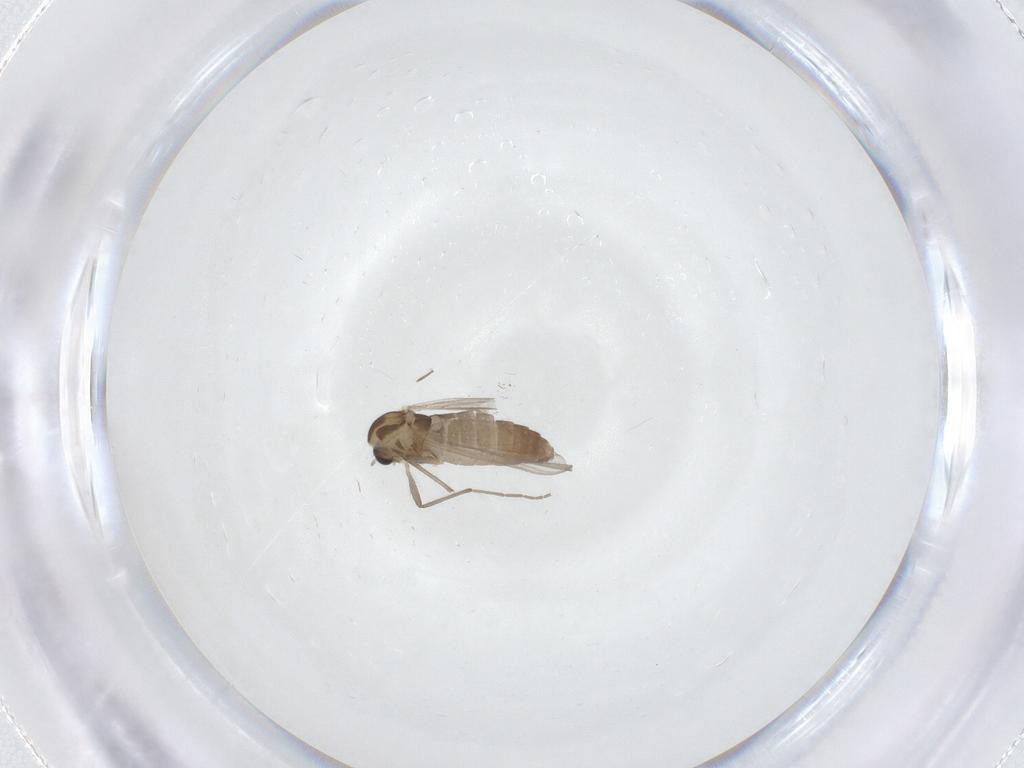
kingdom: Animalia
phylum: Arthropoda
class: Insecta
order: Diptera
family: Chironomidae
